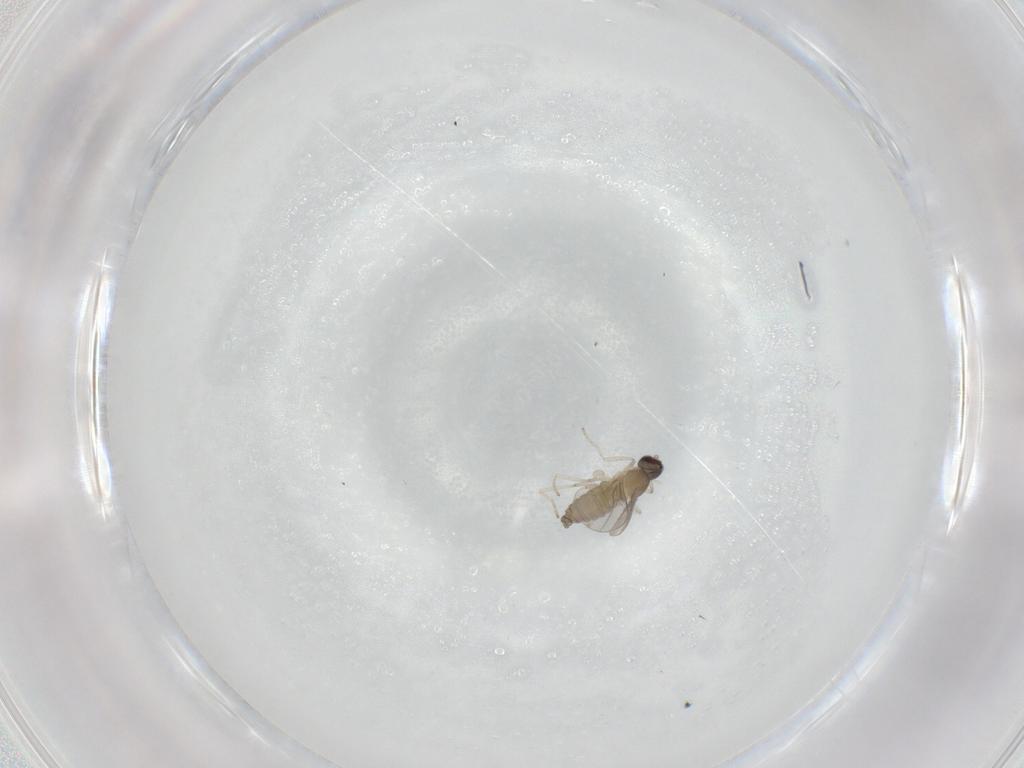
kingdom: Animalia
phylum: Arthropoda
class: Insecta
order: Diptera
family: Cecidomyiidae
